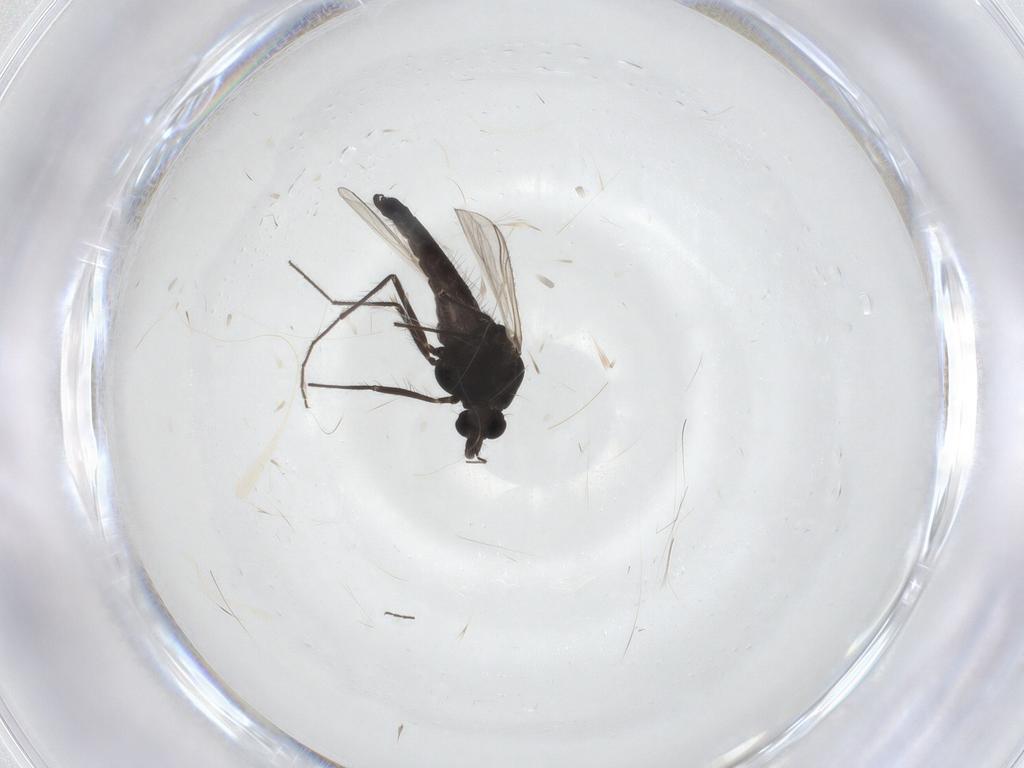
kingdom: Animalia
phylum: Arthropoda
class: Insecta
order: Diptera
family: Chironomidae
